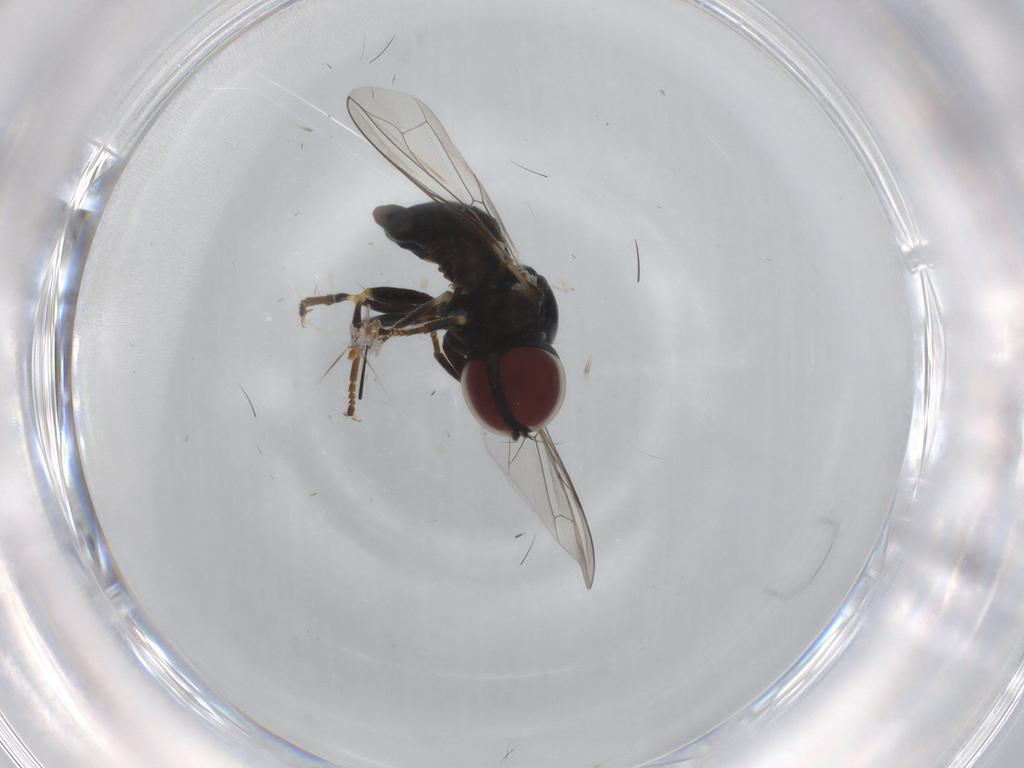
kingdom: Animalia
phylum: Arthropoda
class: Insecta
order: Diptera
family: Pipunculidae
